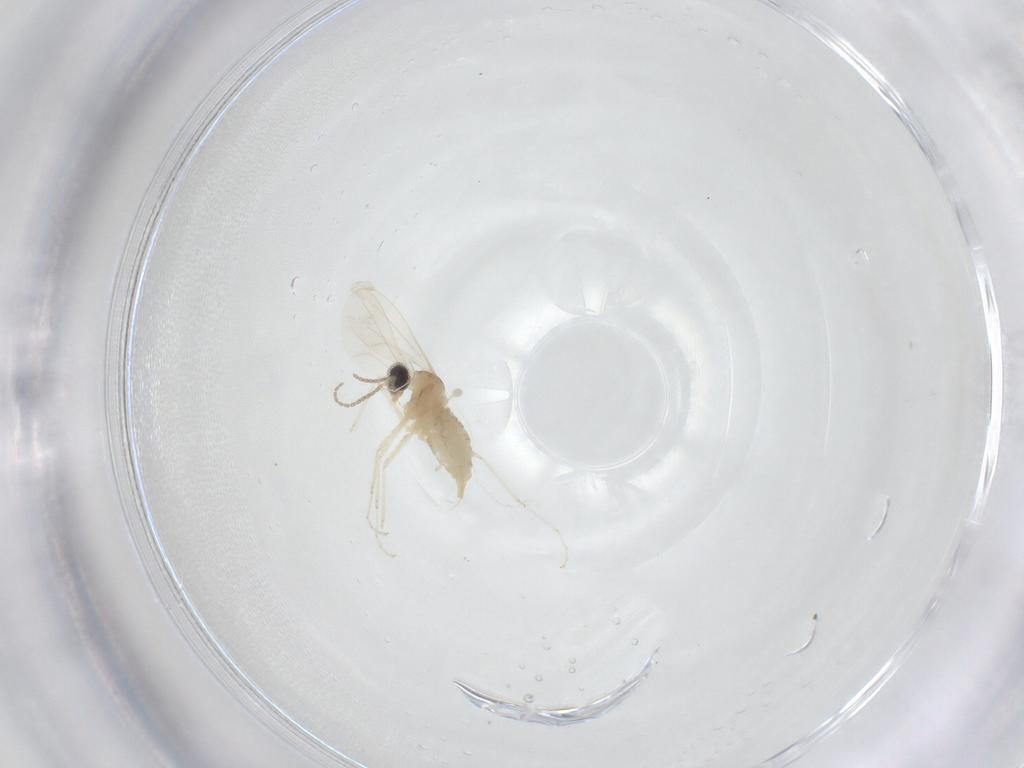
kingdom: Animalia
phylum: Arthropoda
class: Insecta
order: Diptera
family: Cecidomyiidae
